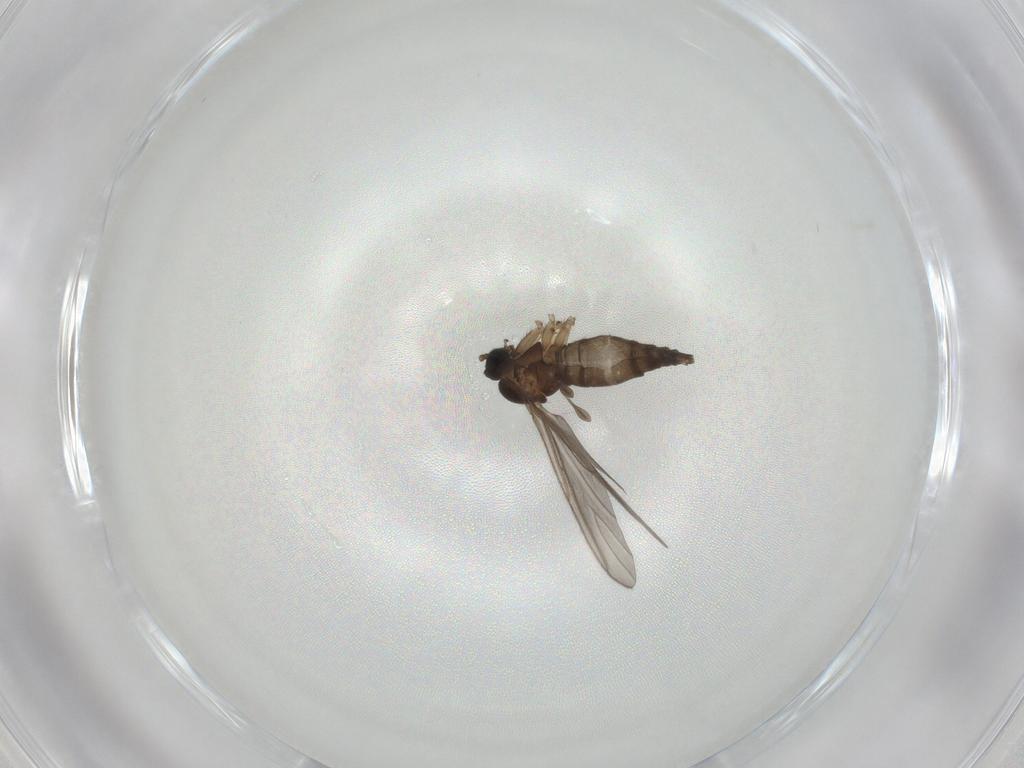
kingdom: Animalia
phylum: Arthropoda
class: Insecta
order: Diptera
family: Sciaridae
